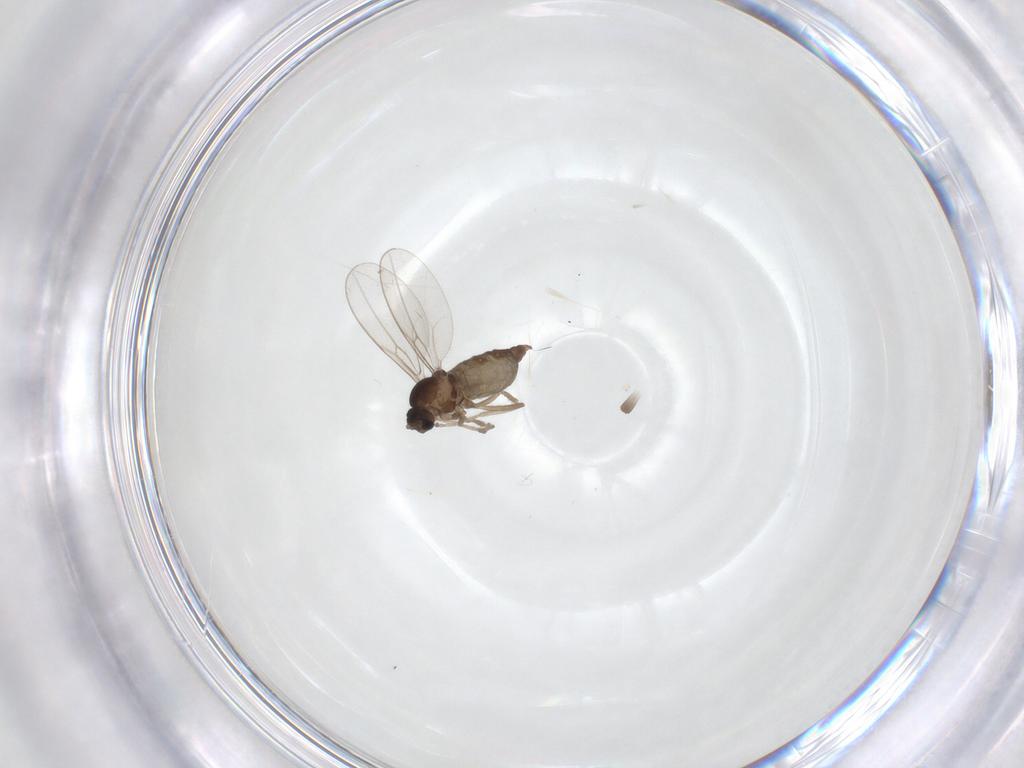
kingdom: Animalia
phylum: Arthropoda
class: Insecta
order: Diptera
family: Cecidomyiidae
